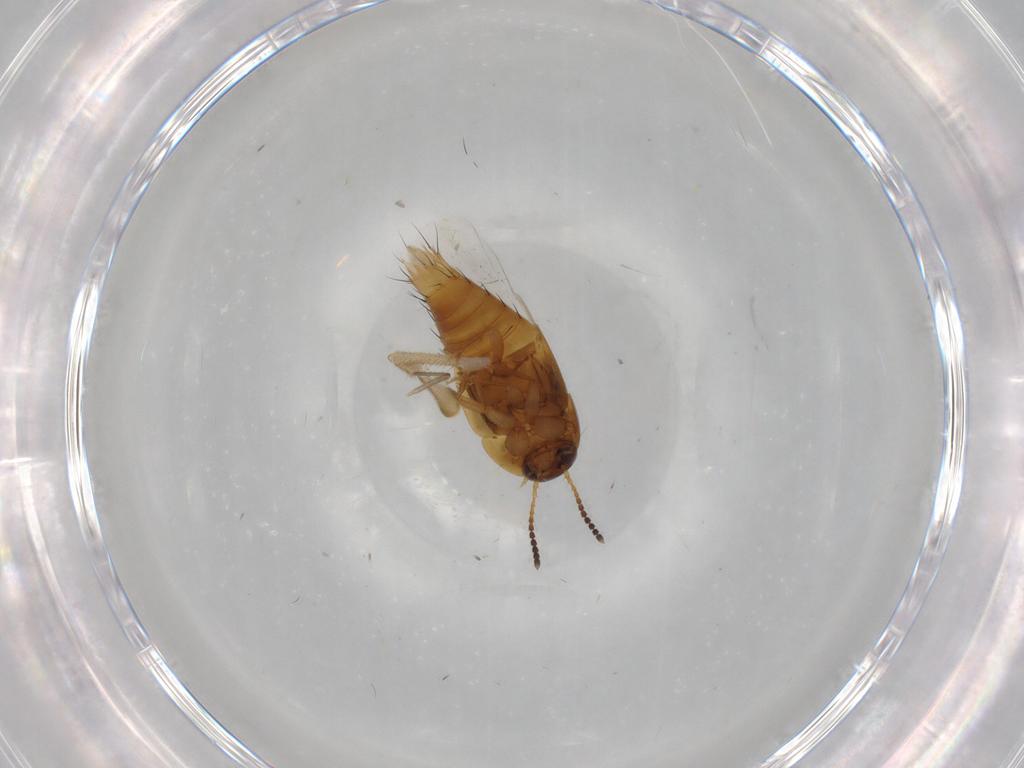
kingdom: Animalia
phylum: Arthropoda
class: Insecta
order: Coleoptera
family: Staphylinidae
